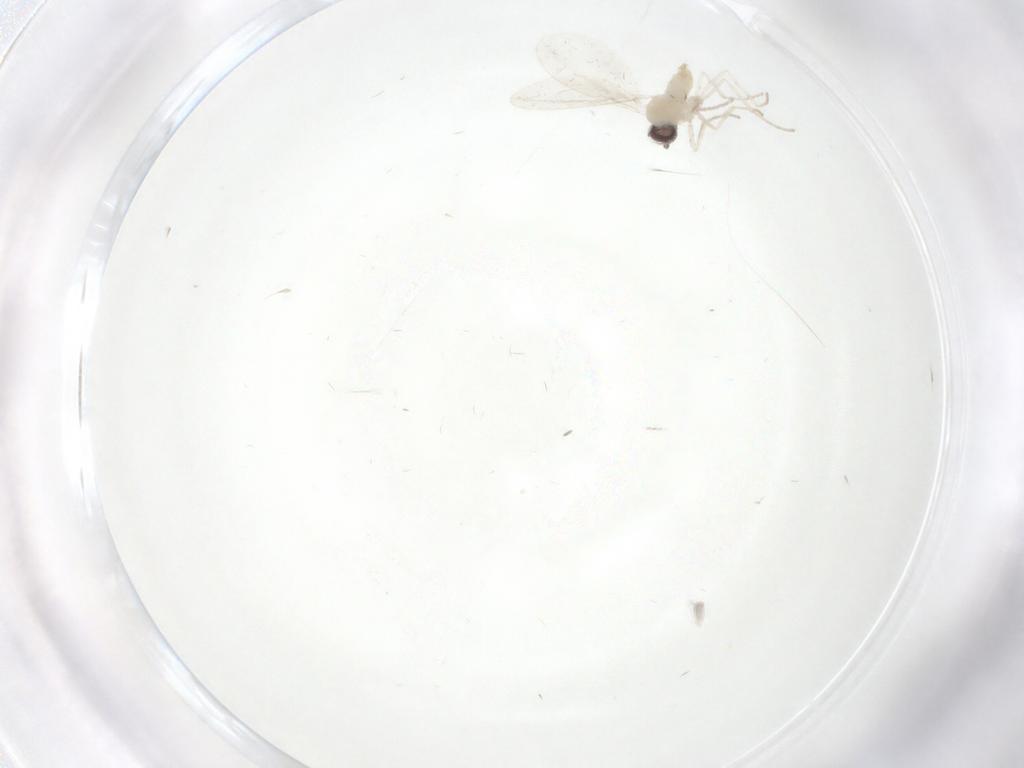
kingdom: Animalia
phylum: Arthropoda
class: Insecta
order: Diptera
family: Cecidomyiidae
